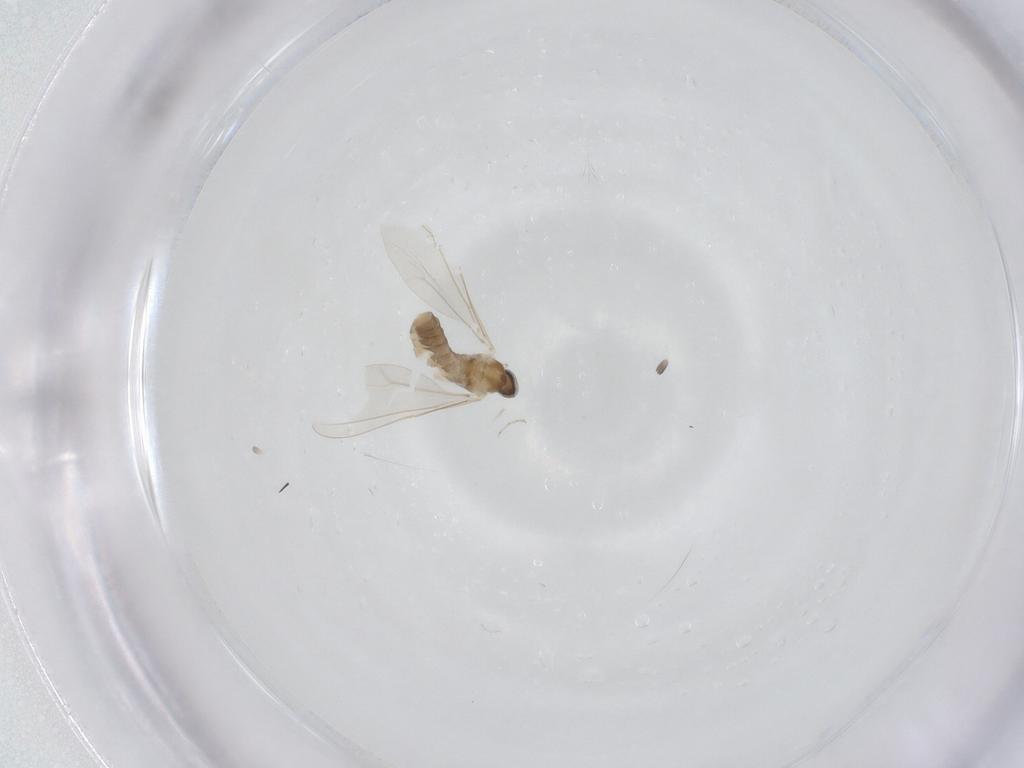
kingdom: Animalia
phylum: Arthropoda
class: Insecta
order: Diptera
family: Cecidomyiidae
